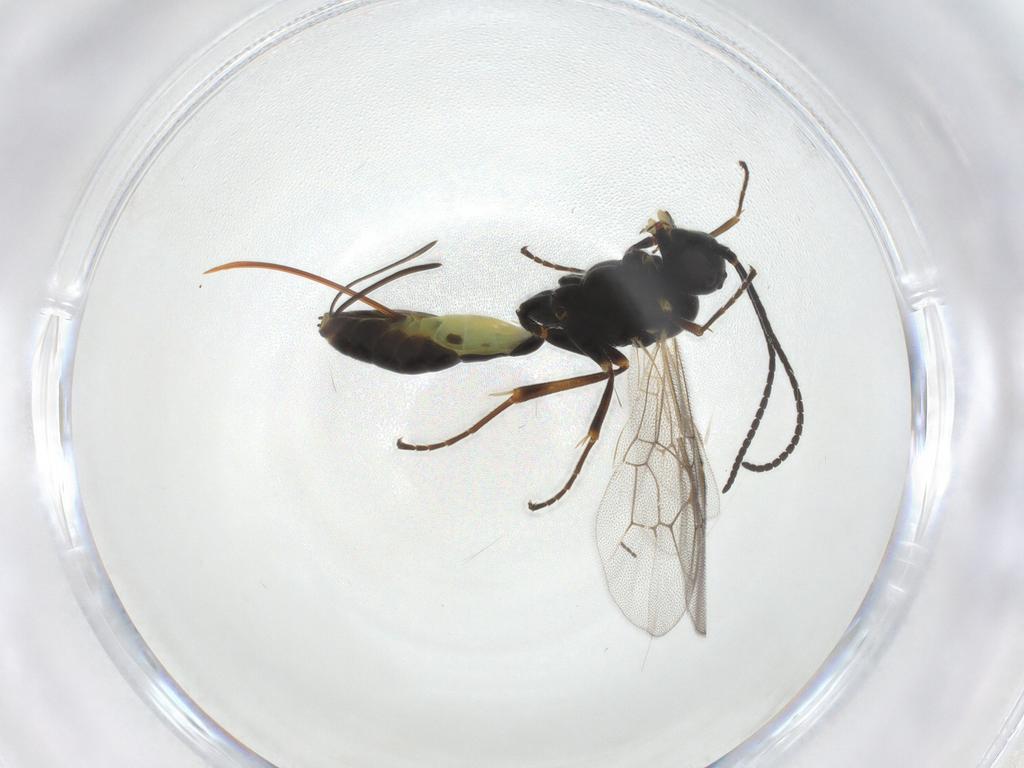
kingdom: Animalia
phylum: Arthropoda
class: Insecta
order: Hymenoptera
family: Ichneumonidae
